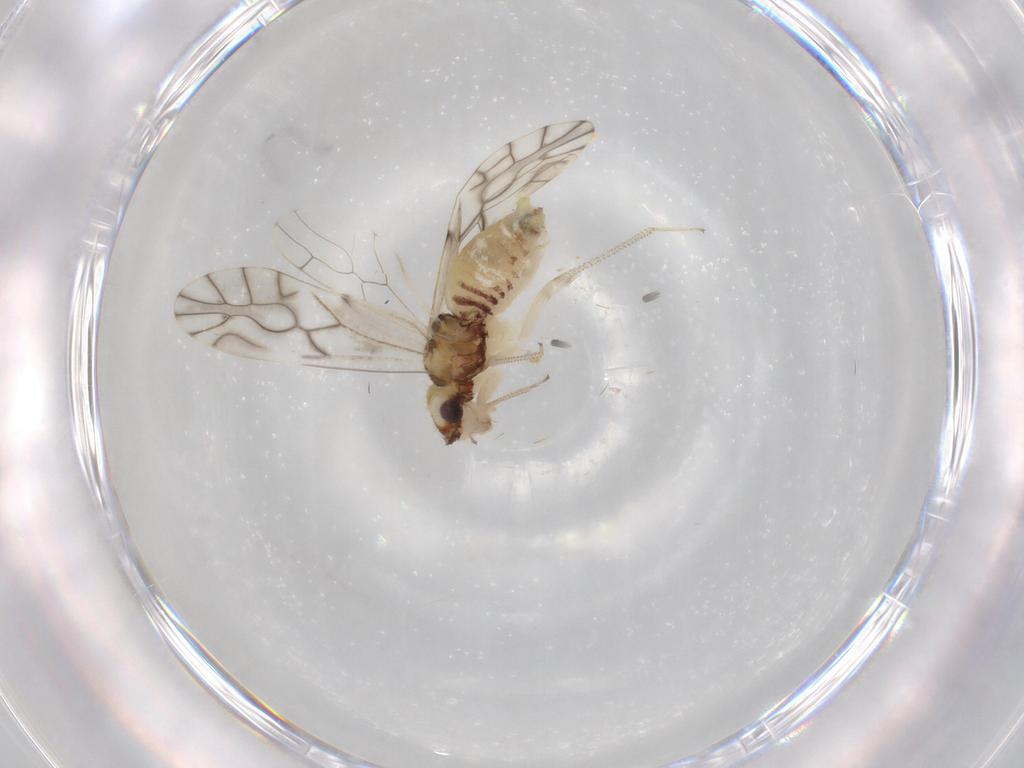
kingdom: Animalia
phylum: Arthropoda
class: Insecta
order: Psocodea
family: Caeciliusidae
